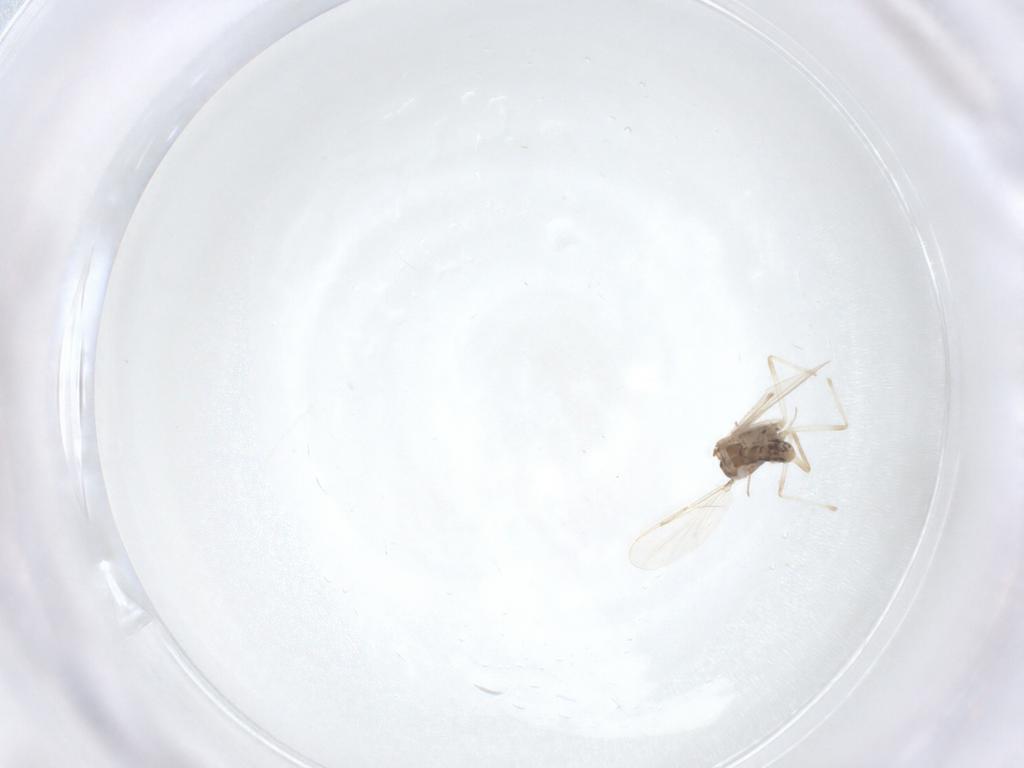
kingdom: Animalia
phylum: Arthropoda
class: Insecta
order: Diptera
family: Chironomidae
